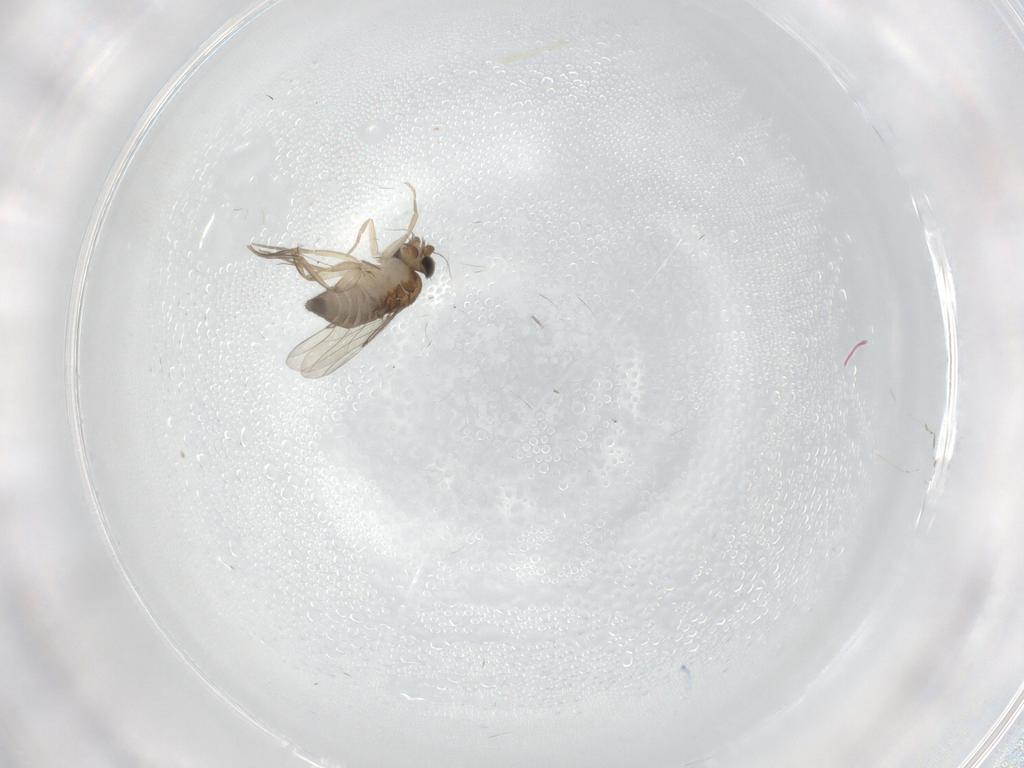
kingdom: Animalia
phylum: Arthropoda
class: Insecta
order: Diptera
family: Psychodidae
